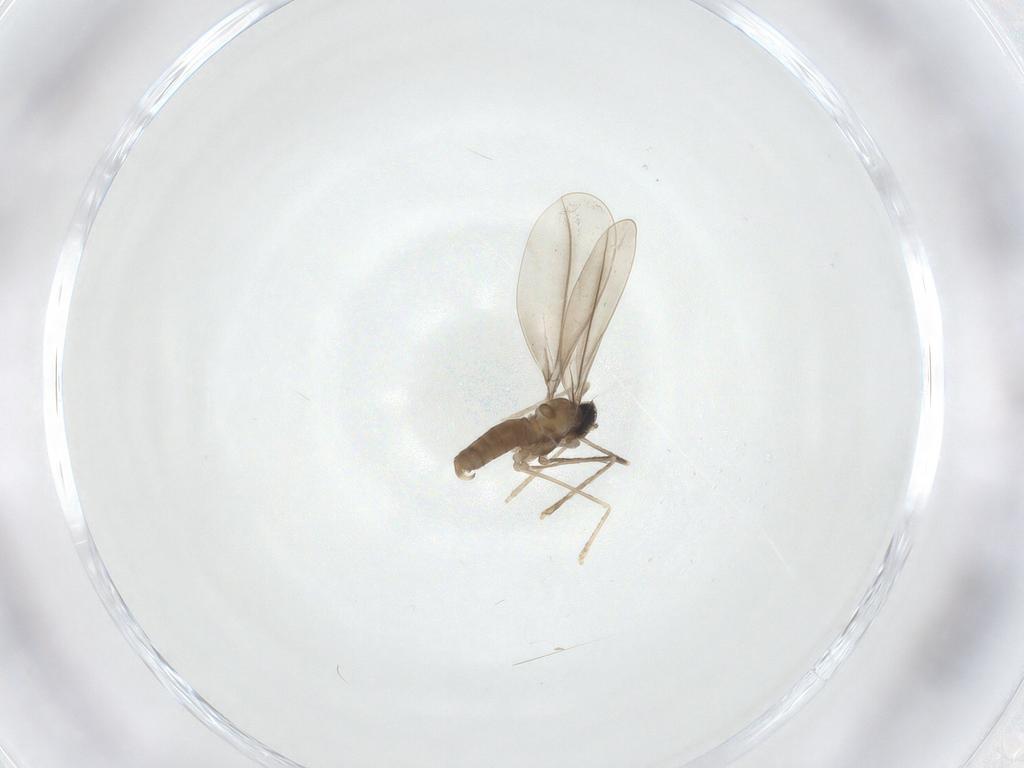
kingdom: Animalia
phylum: Arthropoda
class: Insecta
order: Diptera
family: Cecidomyiidae
